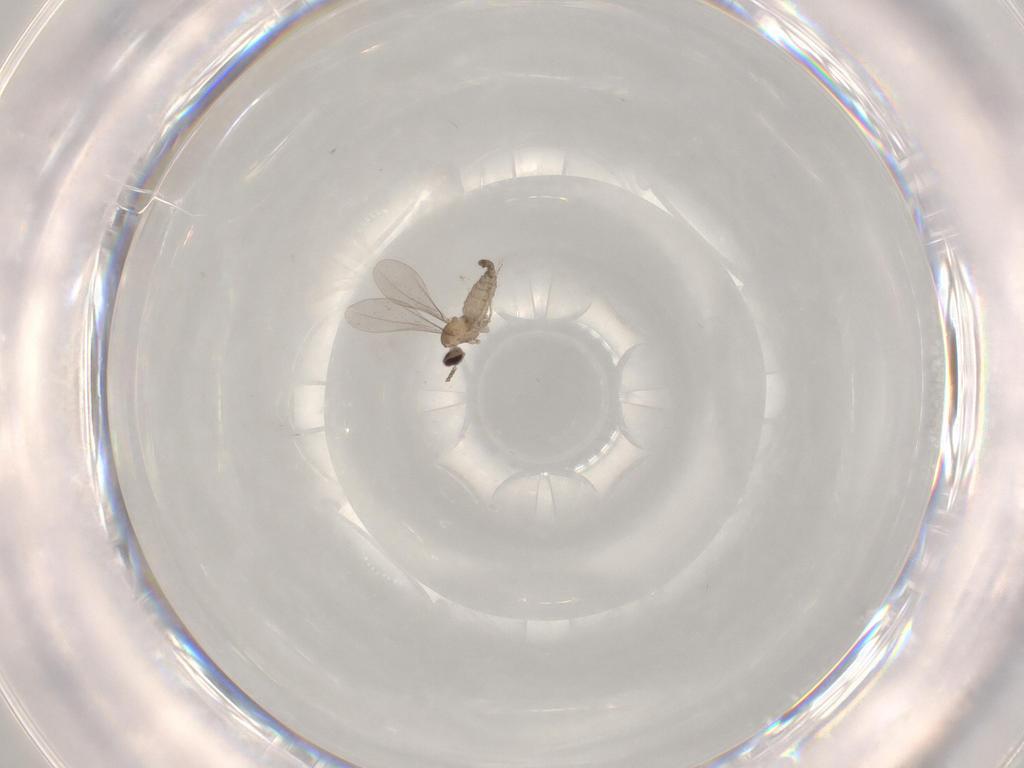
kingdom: Animalia
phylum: Arthropoda
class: Insecta
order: Diptera
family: Cecidomyiidae
